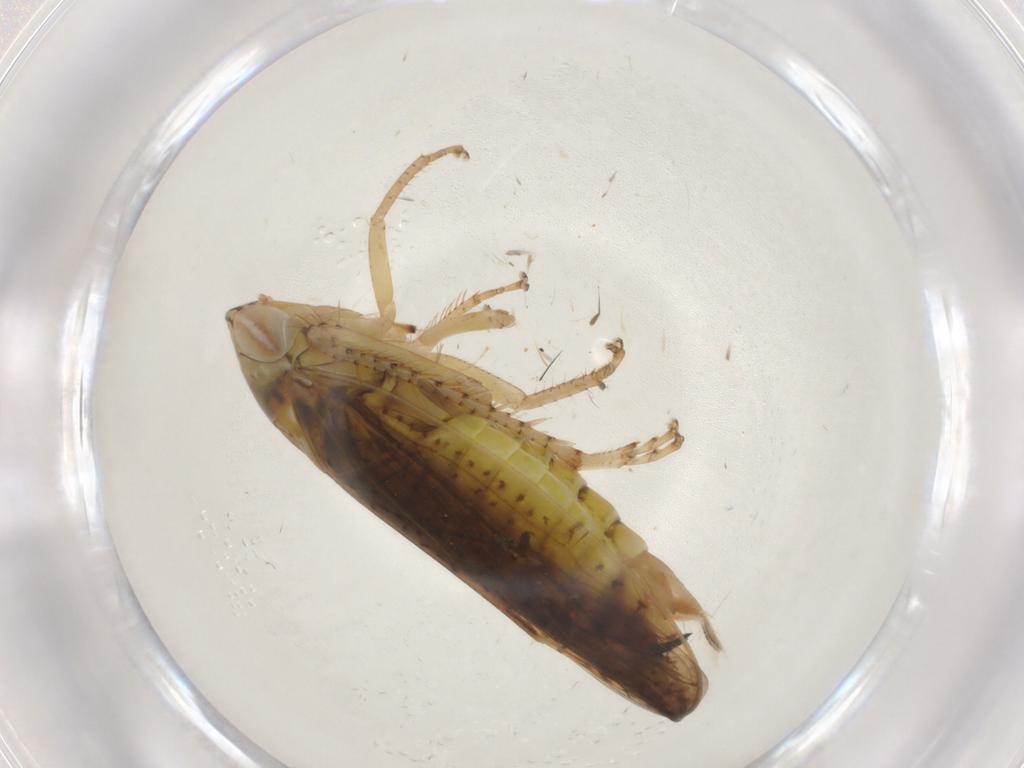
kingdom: Animalia
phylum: Arthropoda
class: Insecta
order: Hemiptera
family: Cicadellidae
